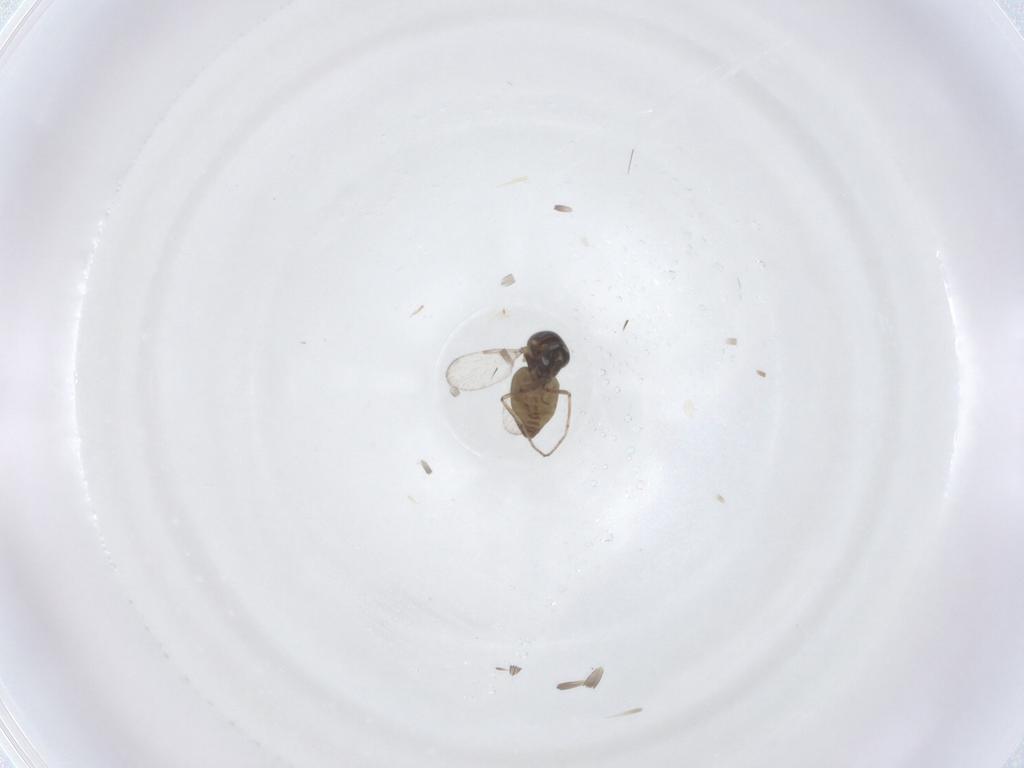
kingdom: Animalia
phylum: Arthropoda
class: Insecta
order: Diptera
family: Ceratopogonidae
